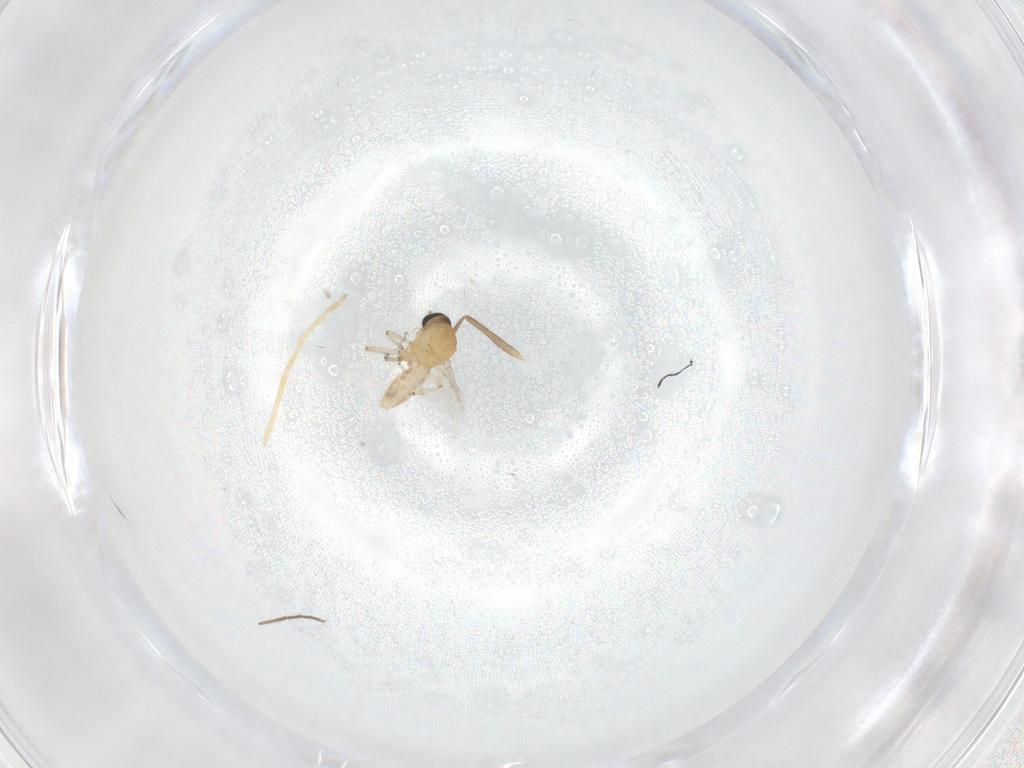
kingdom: Animalia
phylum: Arthropoda
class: Insecta
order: Diptera
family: Ceratopogonidae
